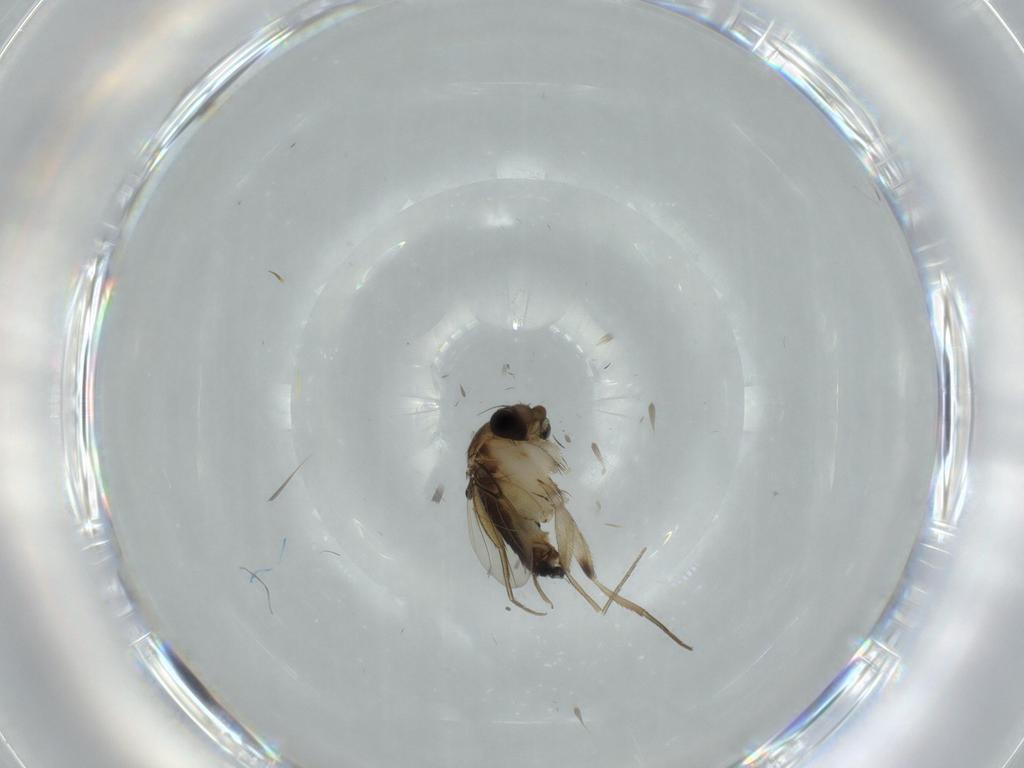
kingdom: Animalia
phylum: Arthropoda
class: Insecta
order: Diptera
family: Phoridae
